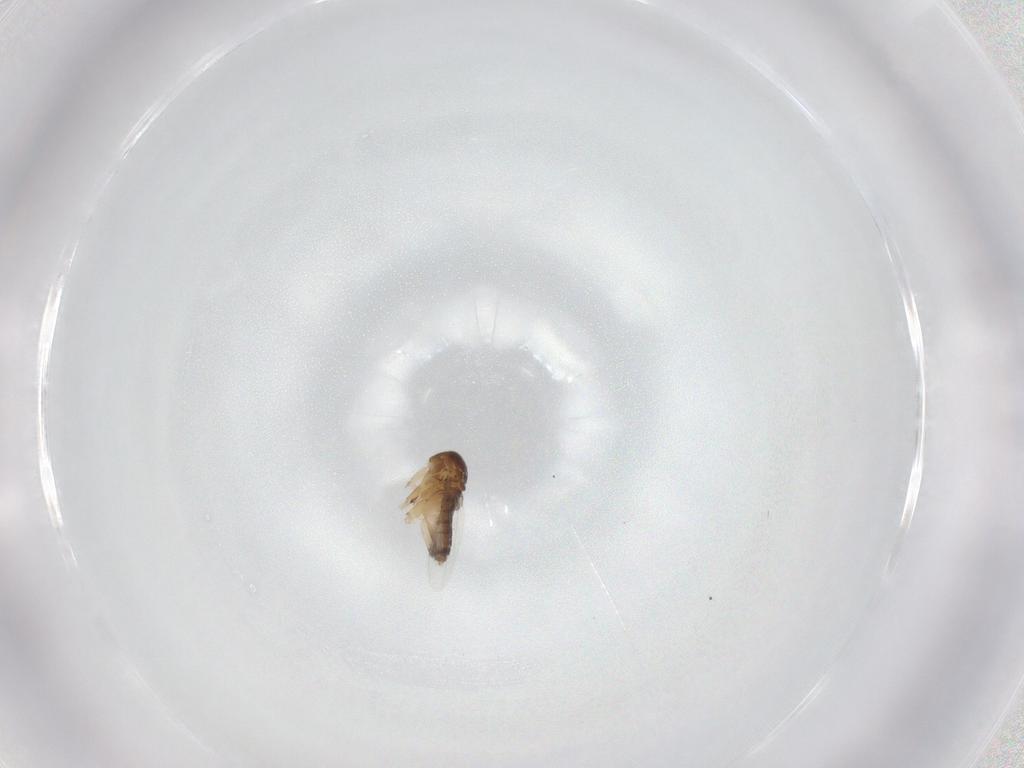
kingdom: Animalia
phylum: Arthropoda
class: Insecta
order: Diptera
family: Phoridae
